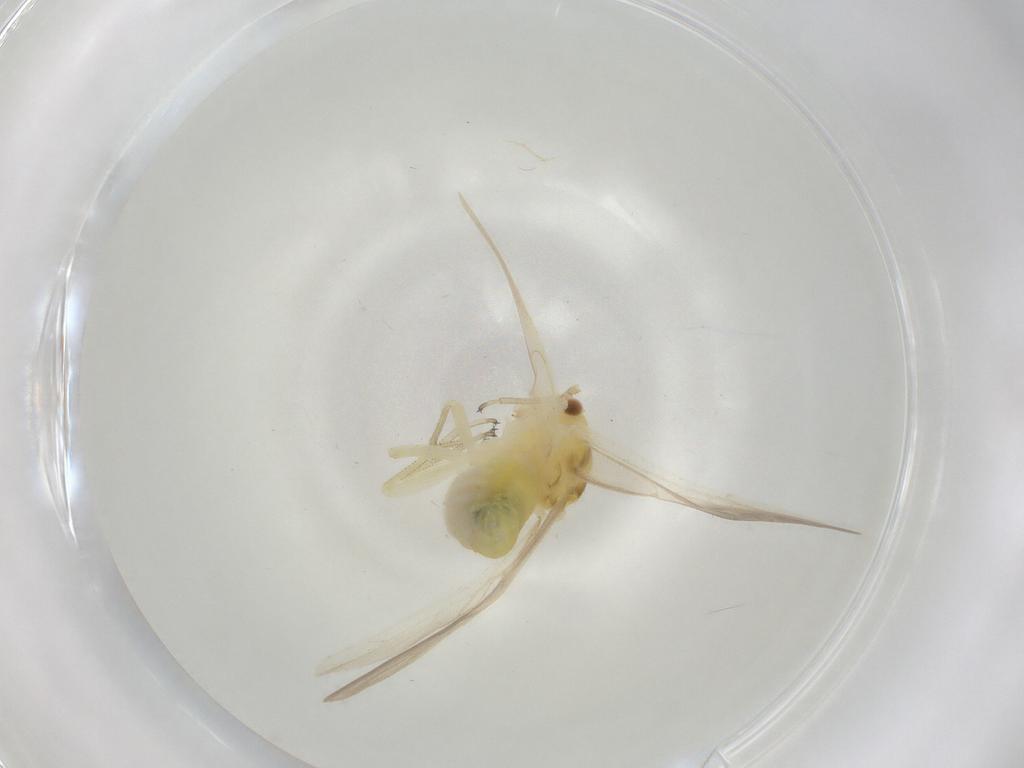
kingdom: Animalia
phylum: Arthropoda
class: Insecta
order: Psocodea
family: Caeciliusidae
